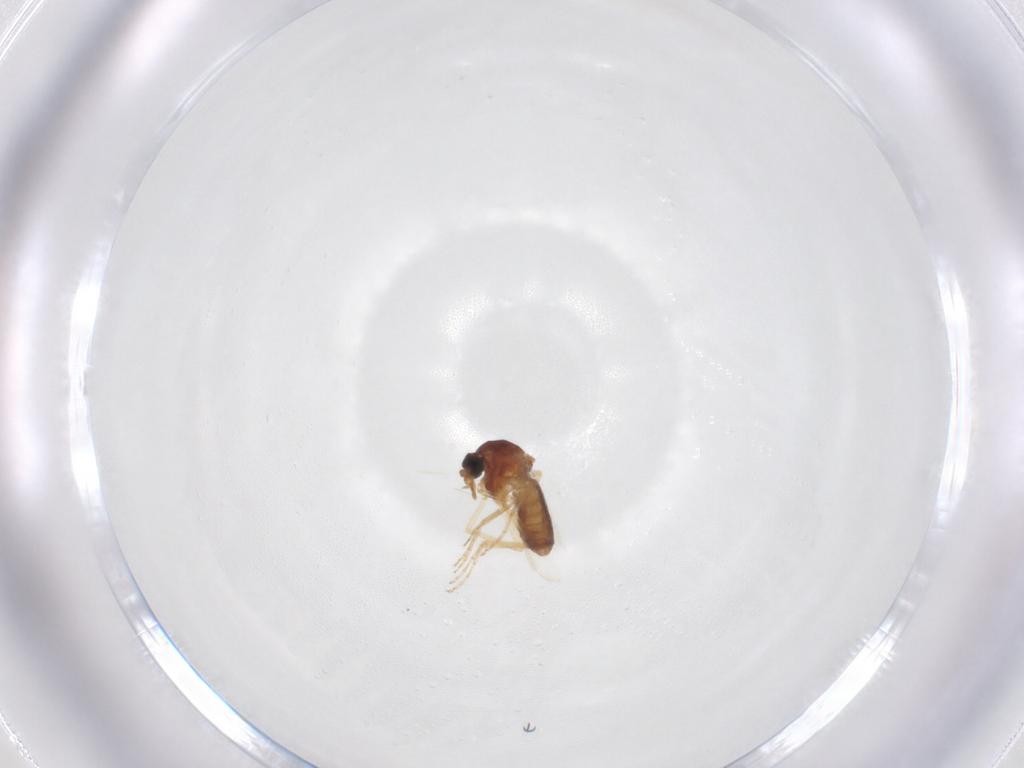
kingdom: Animalia
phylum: Arthropoda
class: Insecta
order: Diptera
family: Ceratopogonidae
